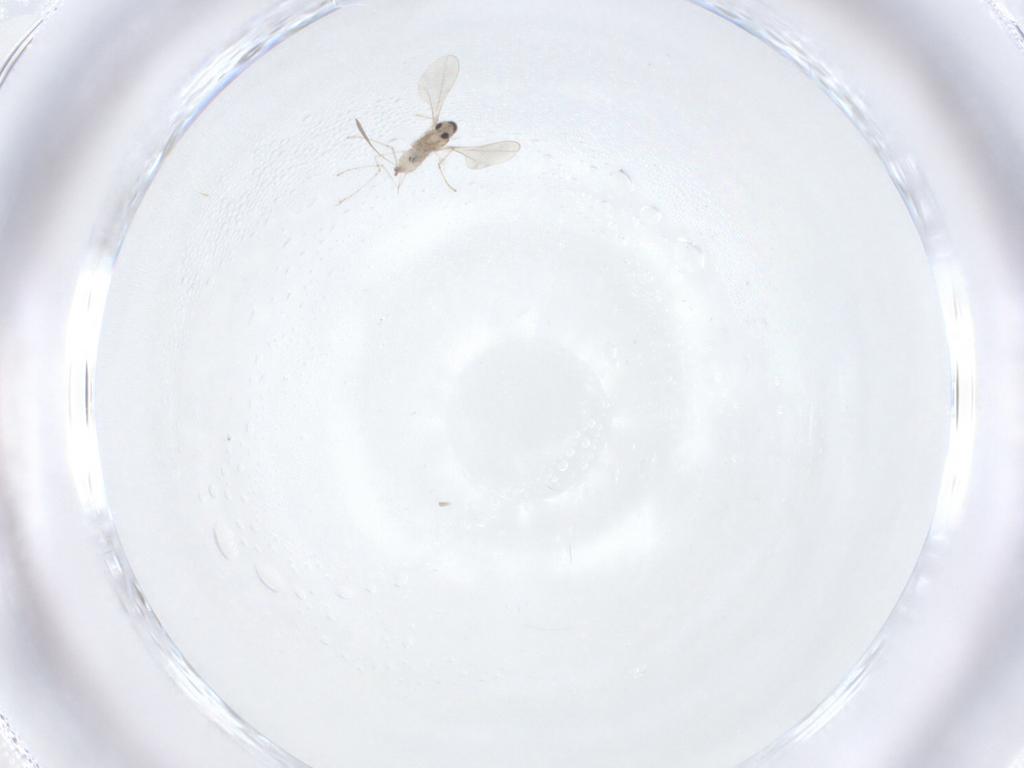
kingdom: Animalia
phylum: Arthropoda
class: Insecta
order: Diptera
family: Chironomidae
